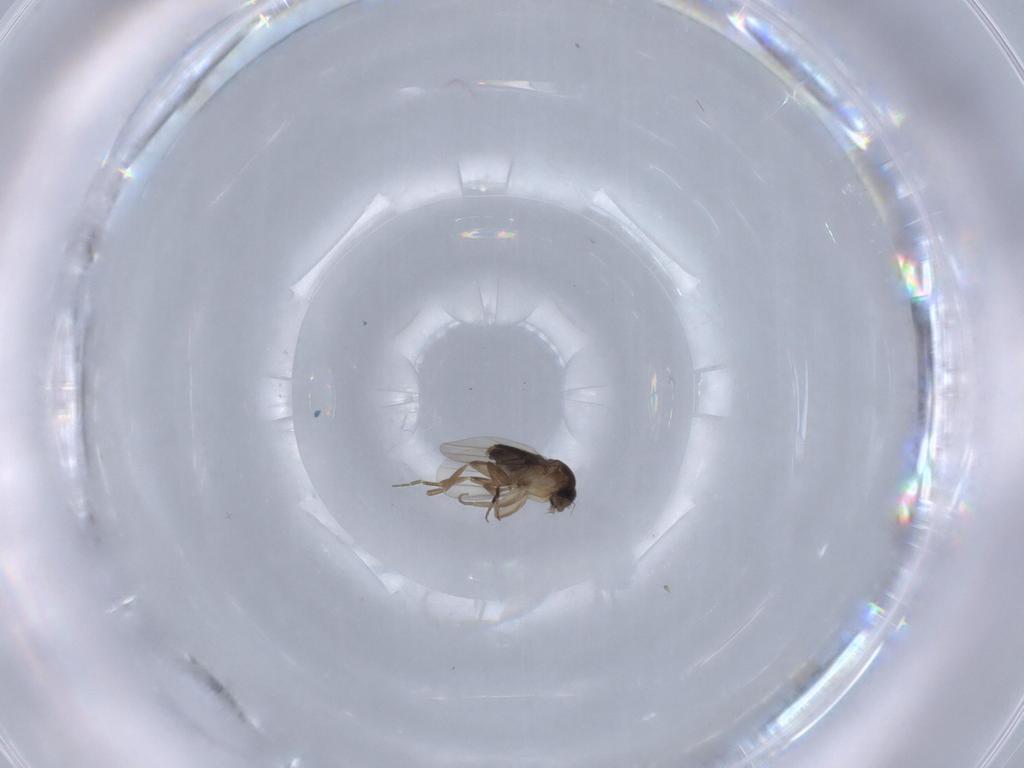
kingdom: Animalia
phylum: Arthropoda
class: Insecta
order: Diptera
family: Phoridae
